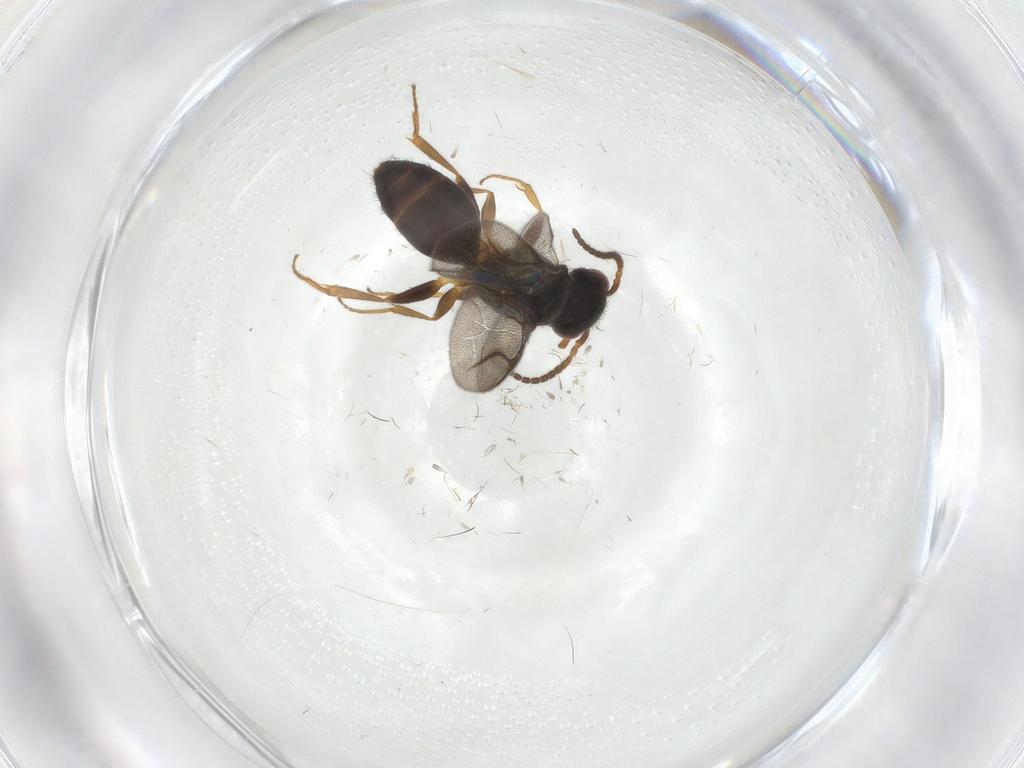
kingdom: Animalia
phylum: Arthropoda
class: Insecta
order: Hymenoptera
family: Bethylidae
